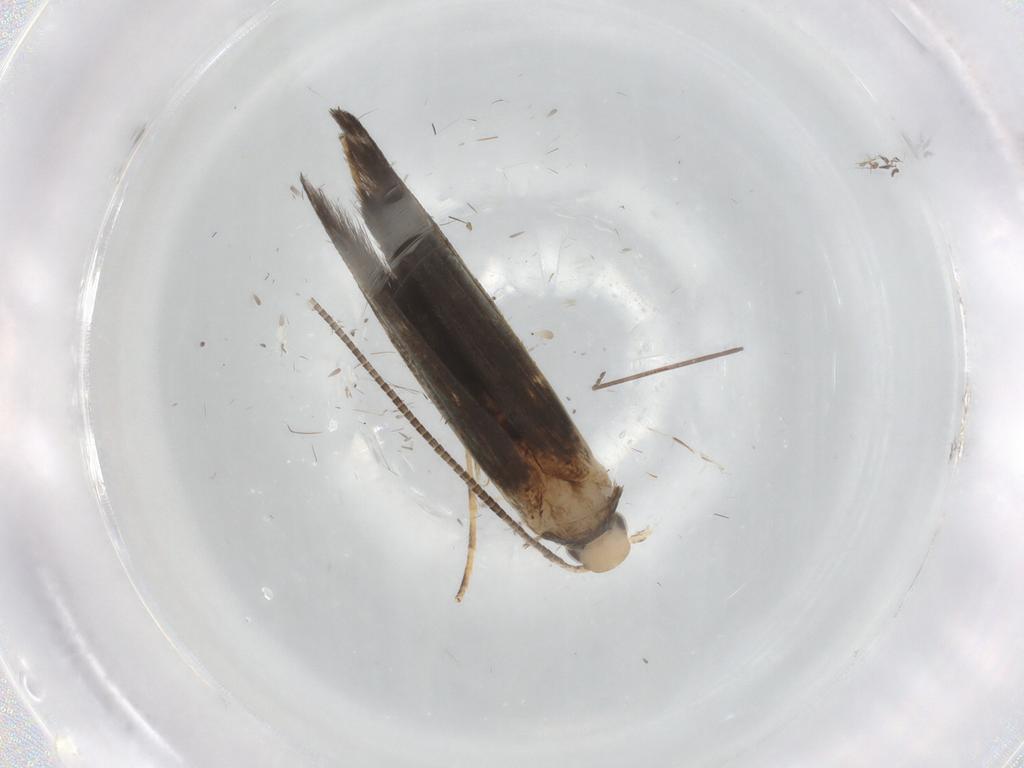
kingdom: Animalia
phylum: Arthropoda
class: Insecta
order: Lepidoptera
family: Gracillariidae
